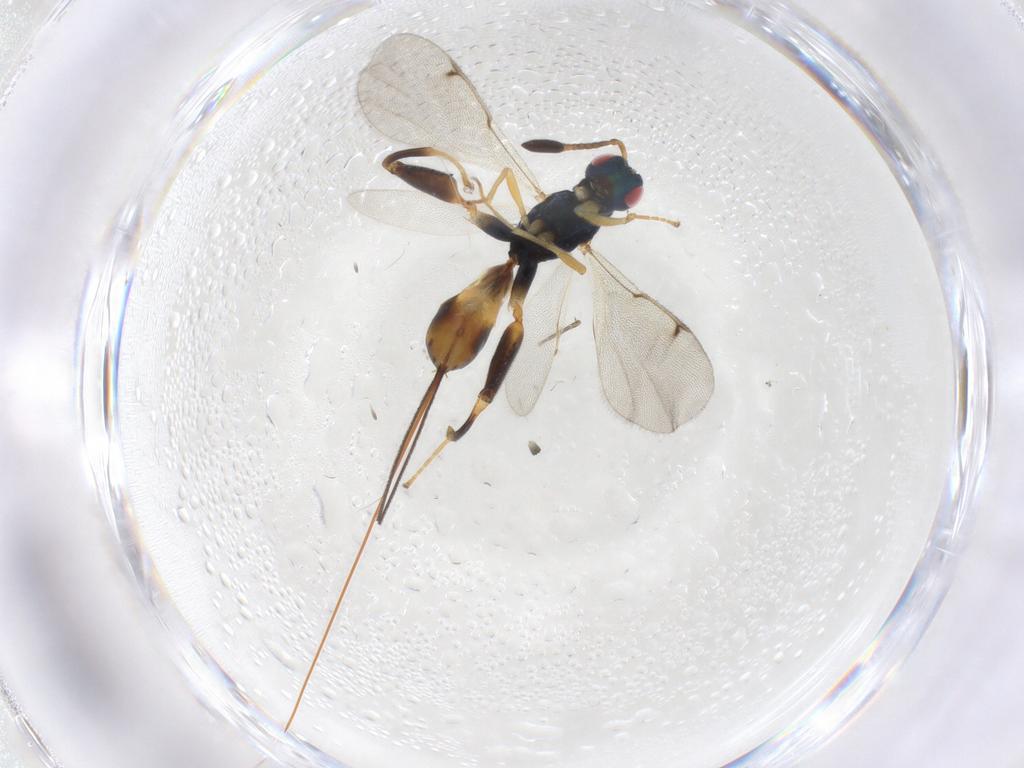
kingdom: Animalia
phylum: Arthropoda
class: Insecta
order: Hymenoptera
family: Torymidae
